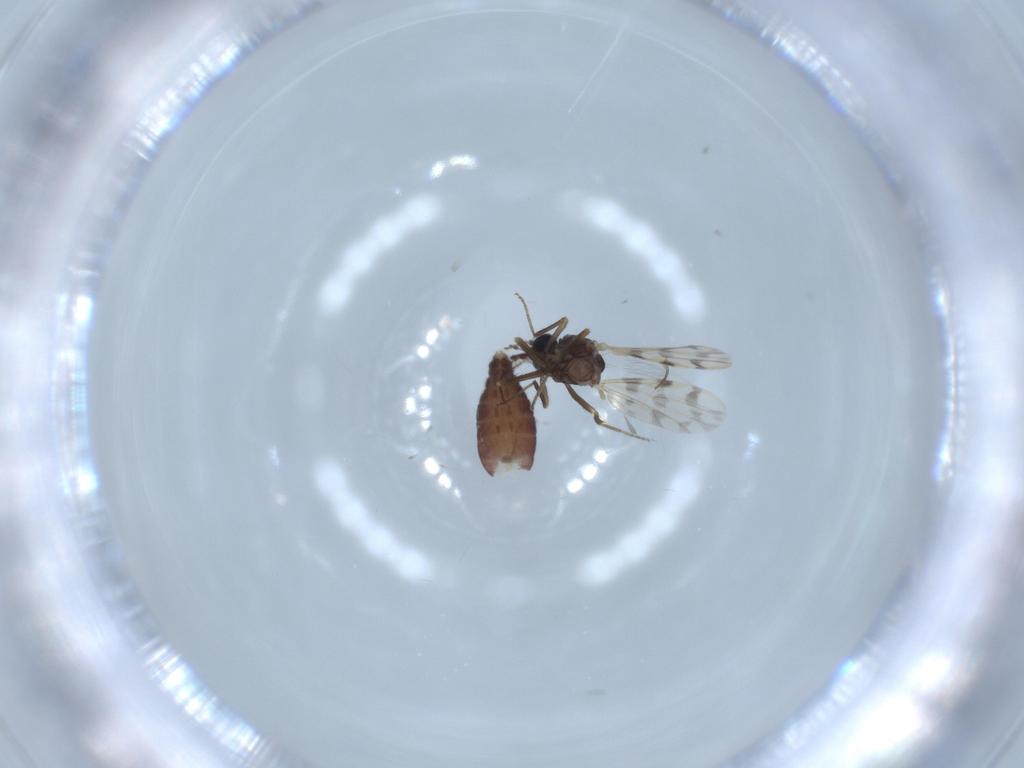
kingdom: Animalia
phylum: Arthropoda
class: Insecta
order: Diptera
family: Ceratopogonidae
